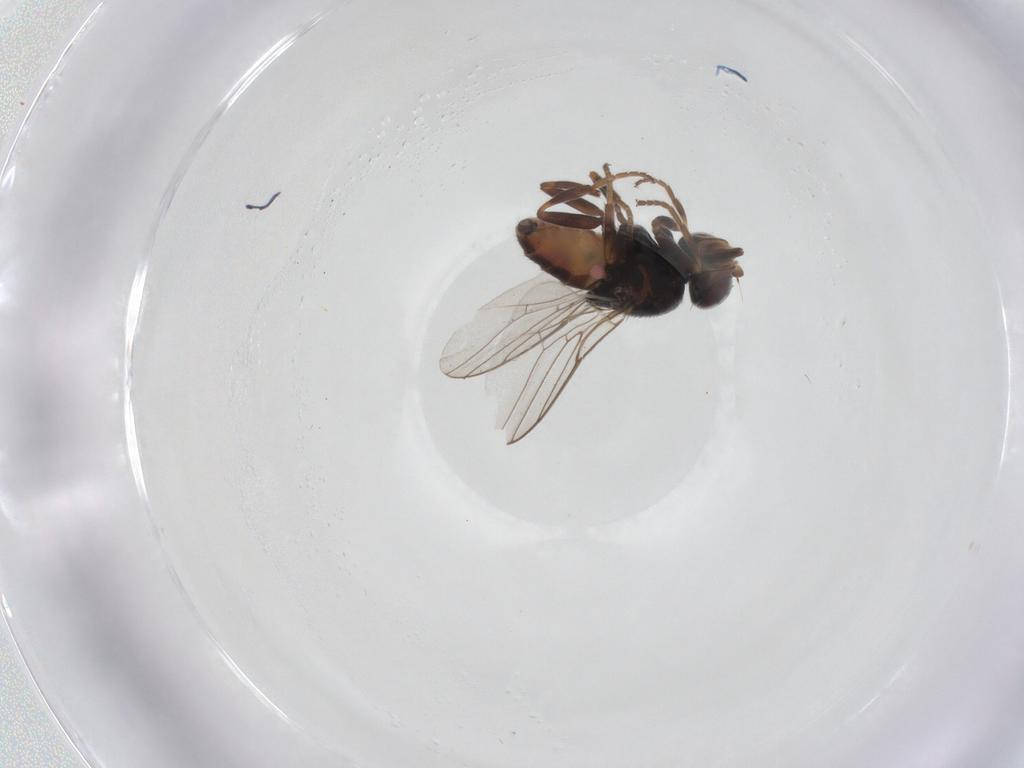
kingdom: Animalia
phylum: Arthropoda
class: Insecta
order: Diptera
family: Chloropidae
